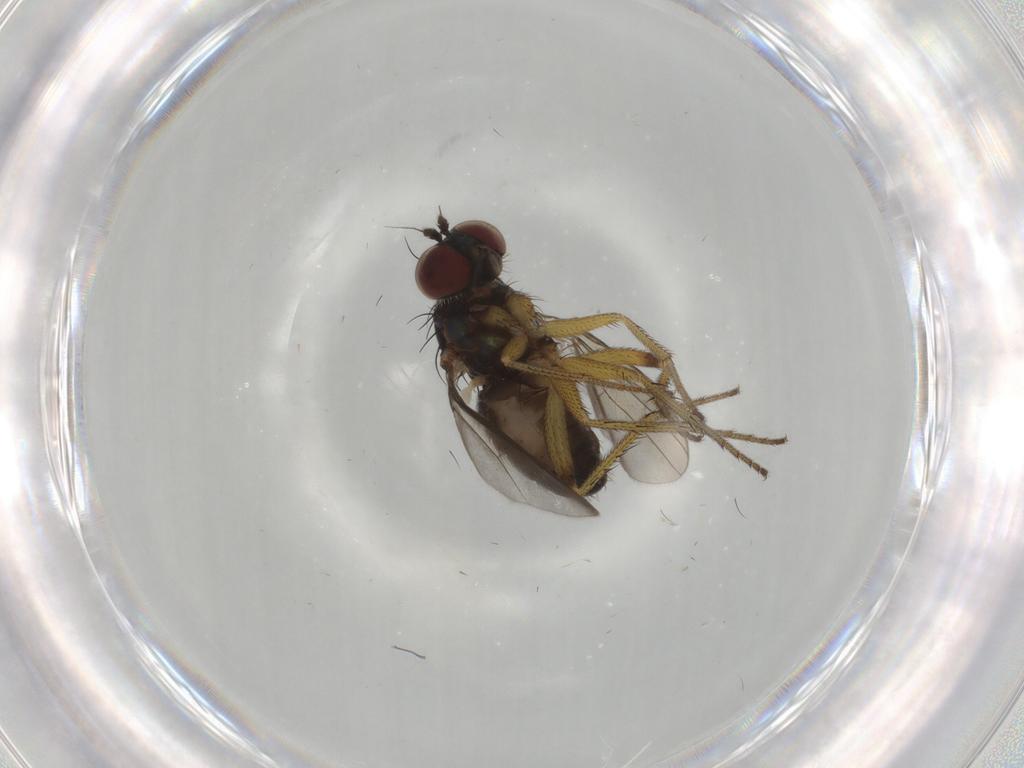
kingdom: Animalia
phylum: Arthropoda
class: Insecta
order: Diptera
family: Dolichopodidae
